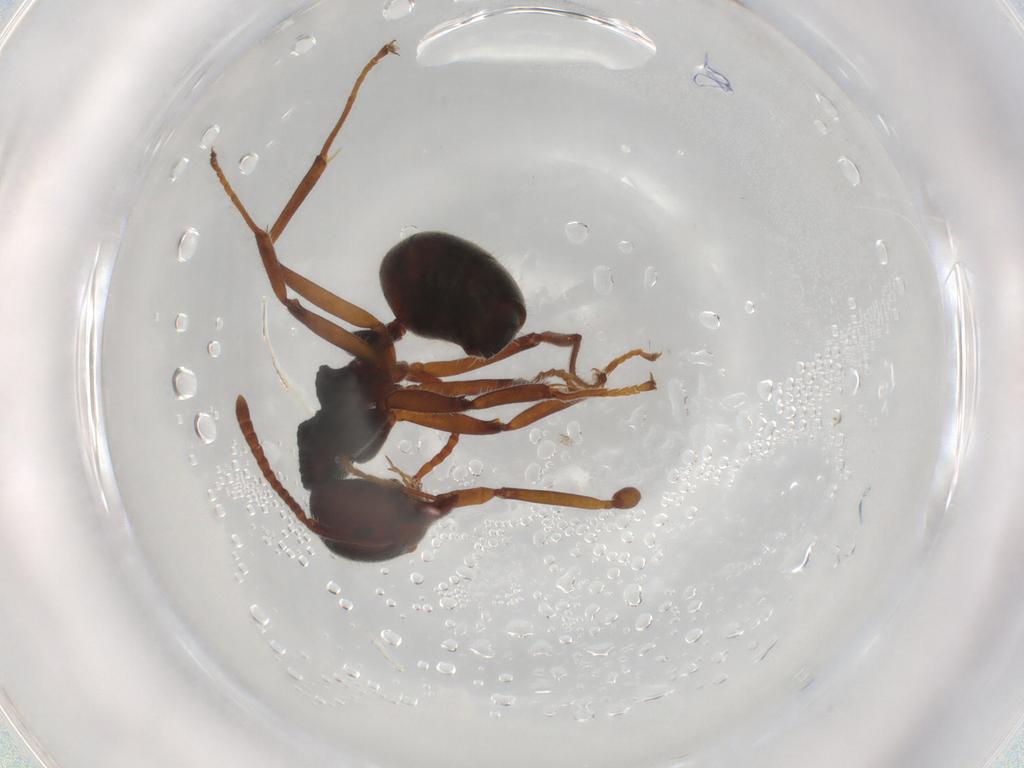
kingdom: Animalia
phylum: Arthropoda
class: Insecta
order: Hymenoptera
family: Formicidae
